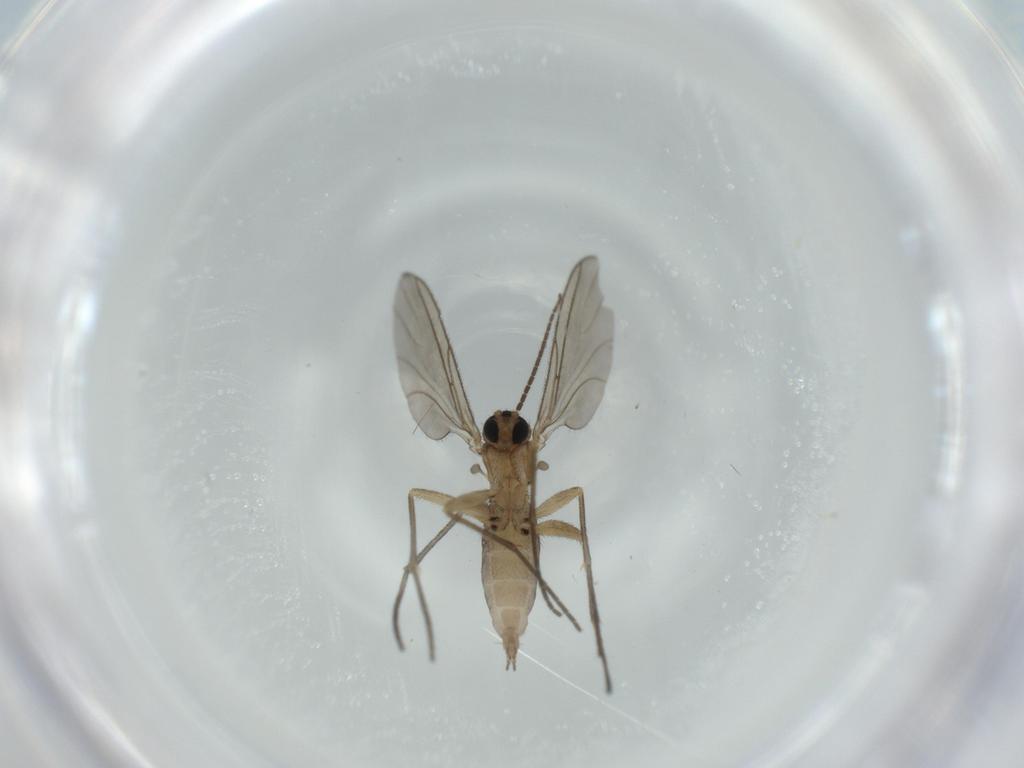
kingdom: Animalia
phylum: Arthropoda
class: Insecta
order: Diptera
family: Sciaridae
